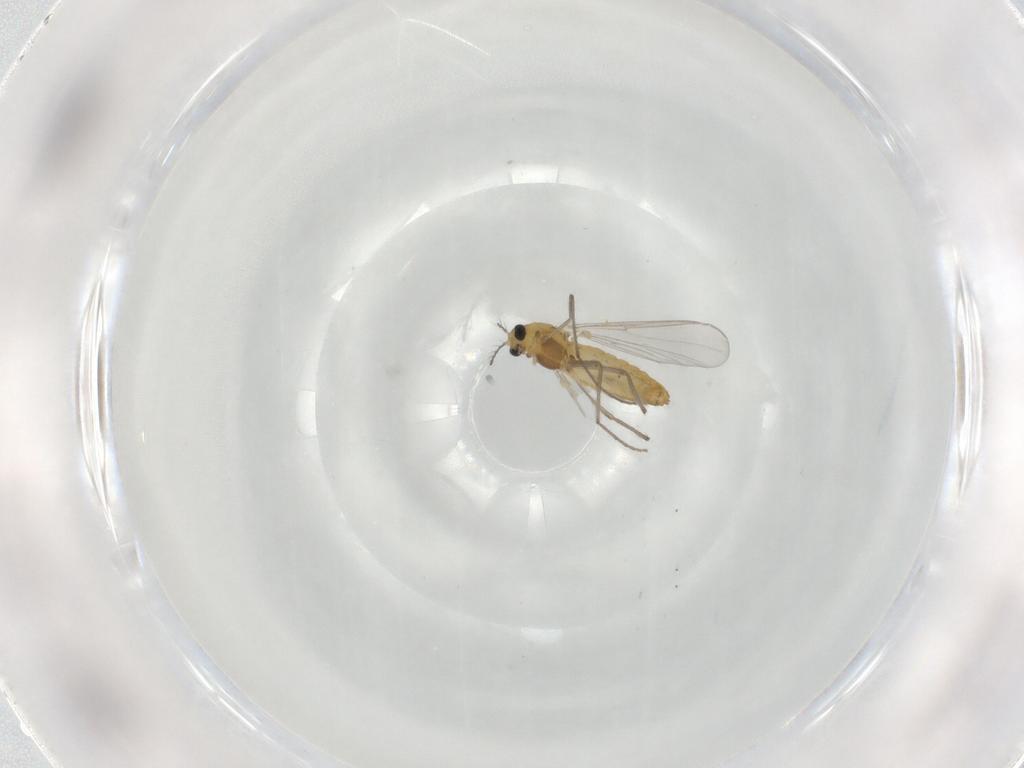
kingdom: Animalia
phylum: Arthropoda
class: Insecta
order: Diptera
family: Chironomidae
